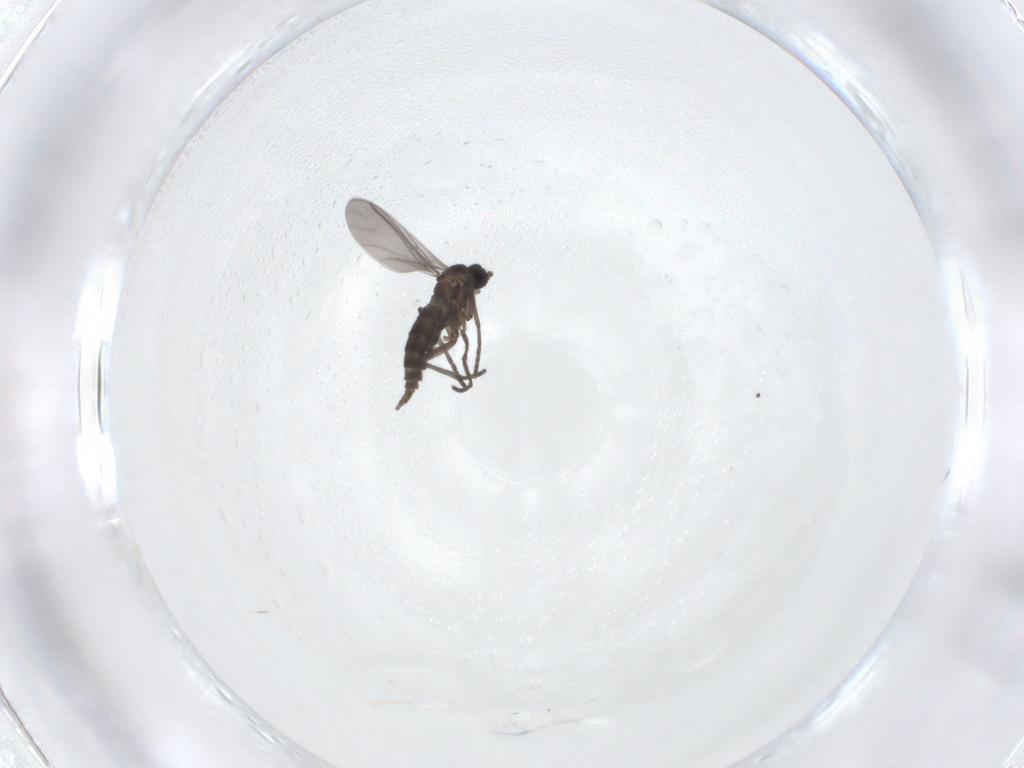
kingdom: Animalia
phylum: Arthropoda
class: Insecta
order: Diptera
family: Sciaridae
